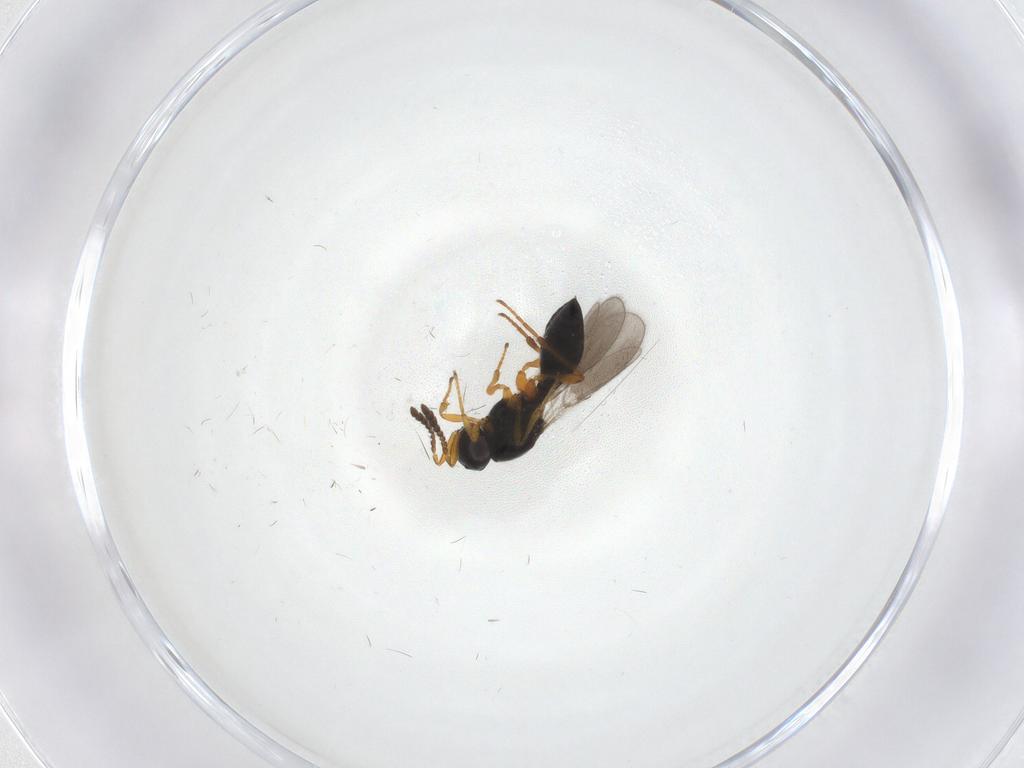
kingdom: Animalia
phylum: Arthropoda
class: Insecta
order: Hymenoptera
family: Platygastridae
